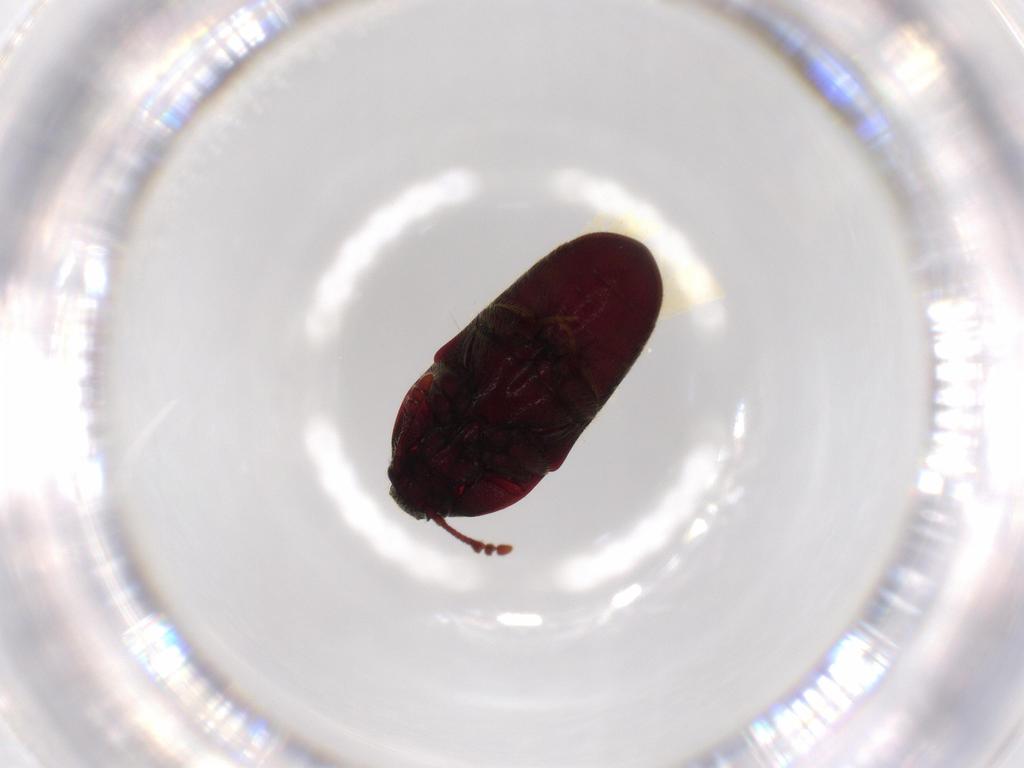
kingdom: Animalia
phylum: Arthropoda
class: Insecta
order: Coleoptera
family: Throscidae
